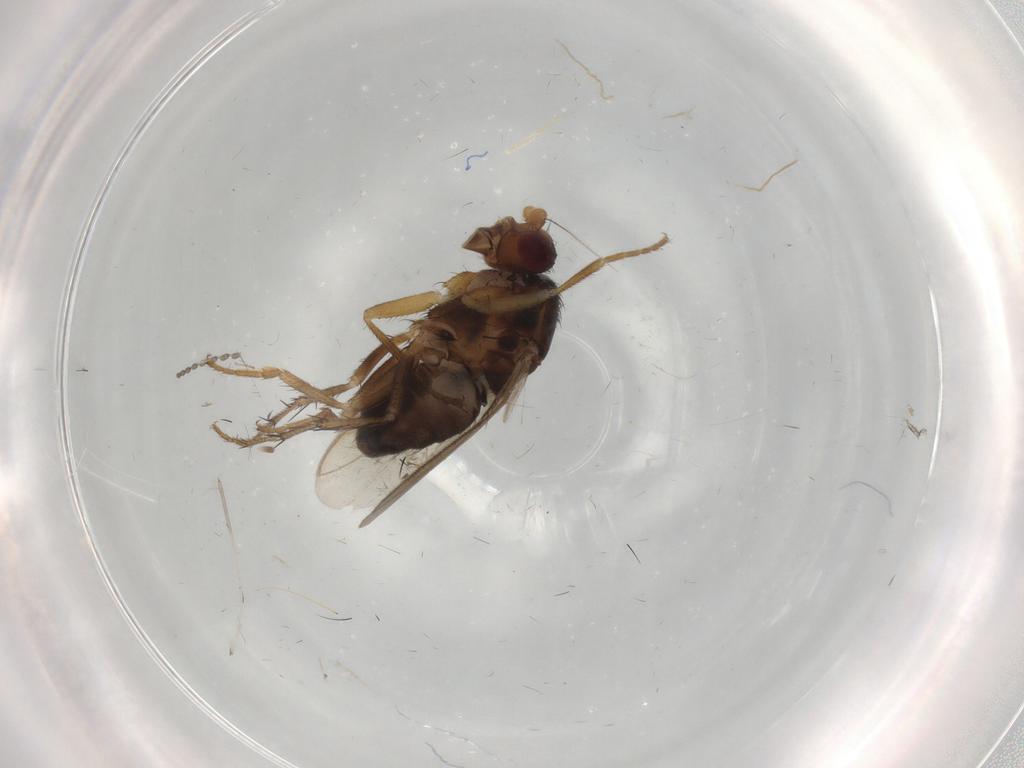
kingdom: Animalia
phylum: Arthropoda
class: Insecta
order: Diptera
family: Sphaeroceridae
